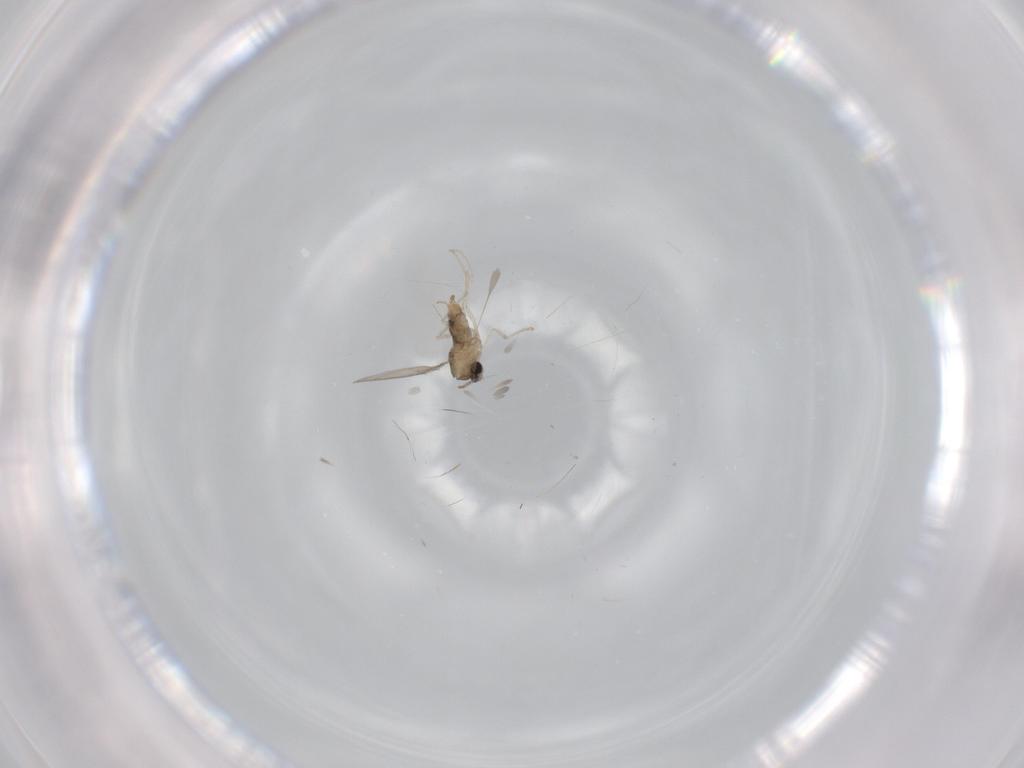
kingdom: Animalia
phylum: Arthropoda
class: Insecta
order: Diptera
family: Cecidomyiidae
